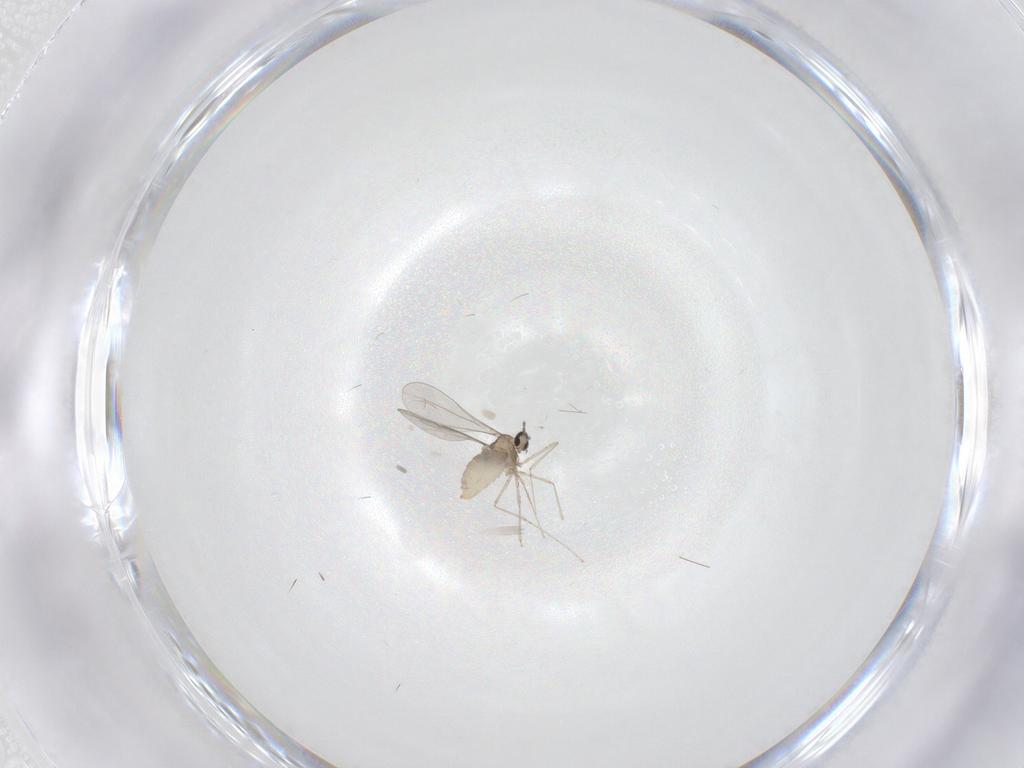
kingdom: Animalia
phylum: Arthropoda
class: Insecta
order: Diptera
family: Cecidomyiidae
